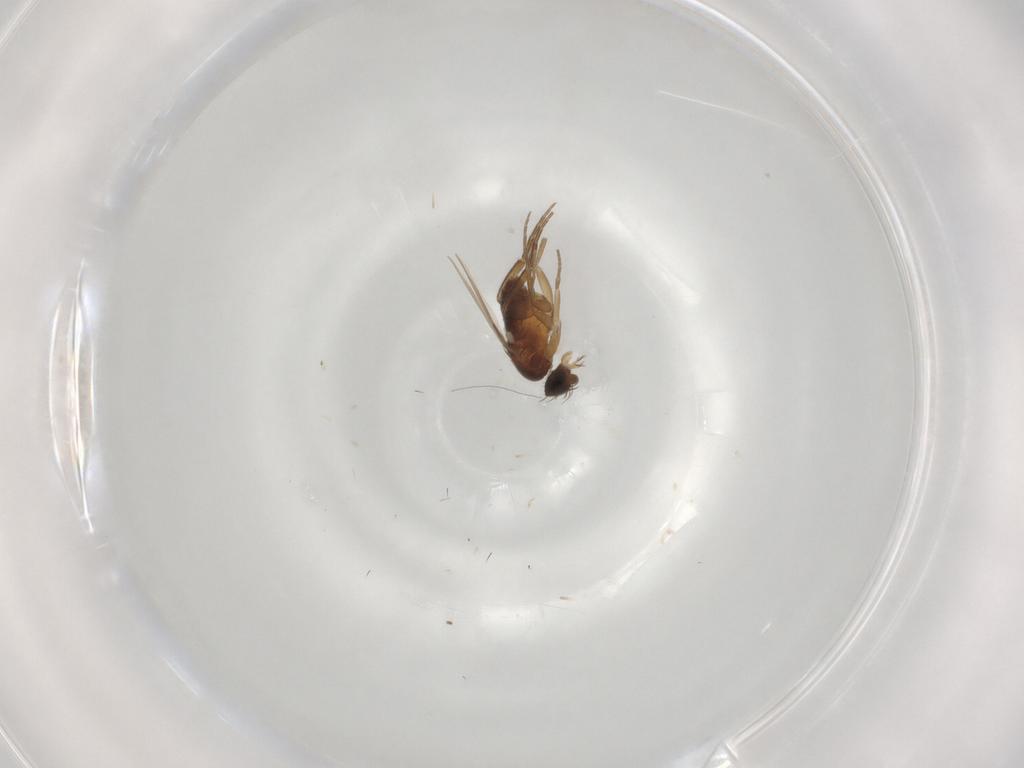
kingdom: Animalia
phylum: Arthropoda
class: Insecta
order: Diptera
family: Phoridae
